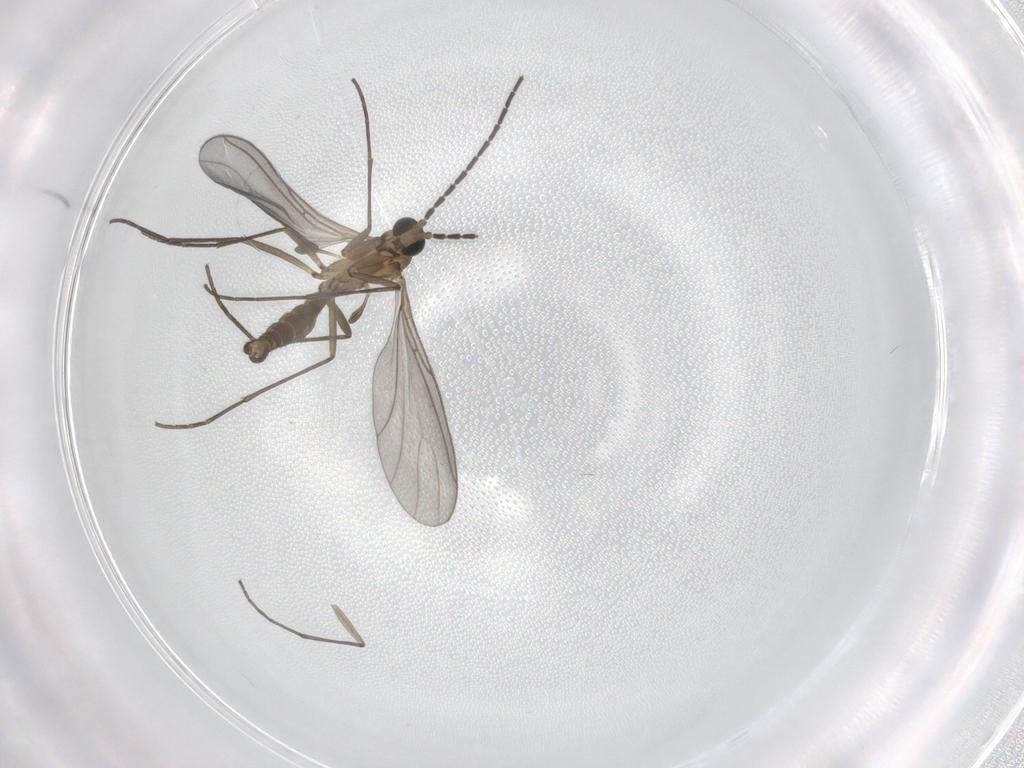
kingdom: Animalia
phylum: Arthropoda
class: Insecta
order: Diptera
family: Sciaridae
